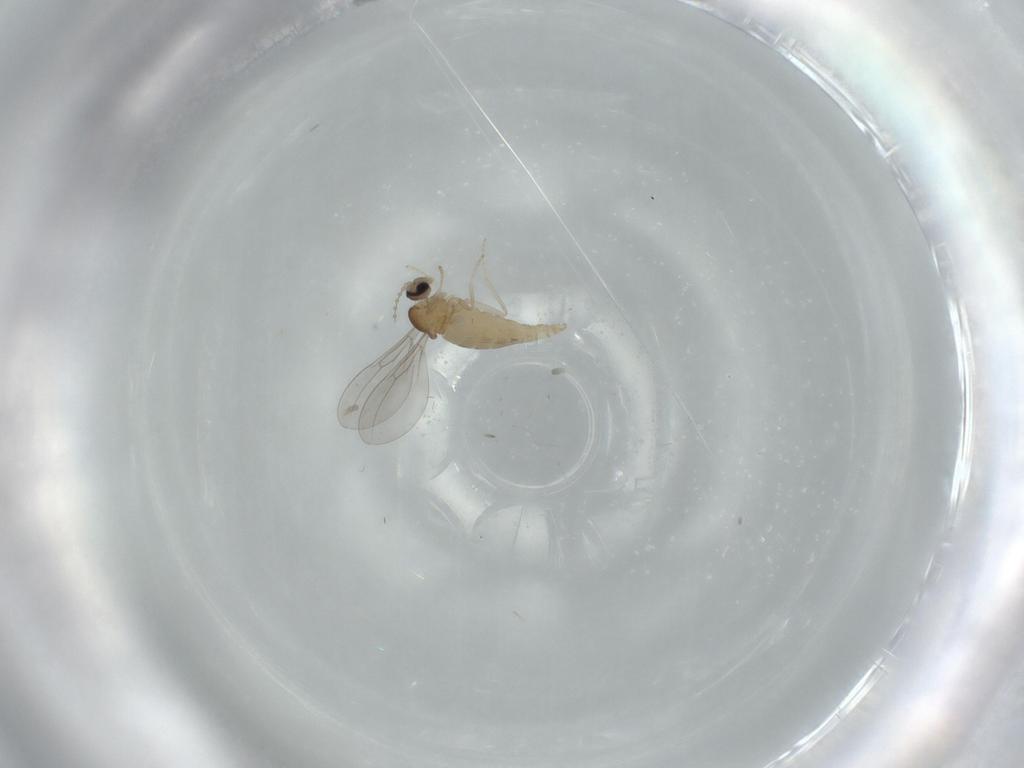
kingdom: Animalia
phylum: Arthropoda
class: Insecta
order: Diptera
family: Cecidomyiidae
